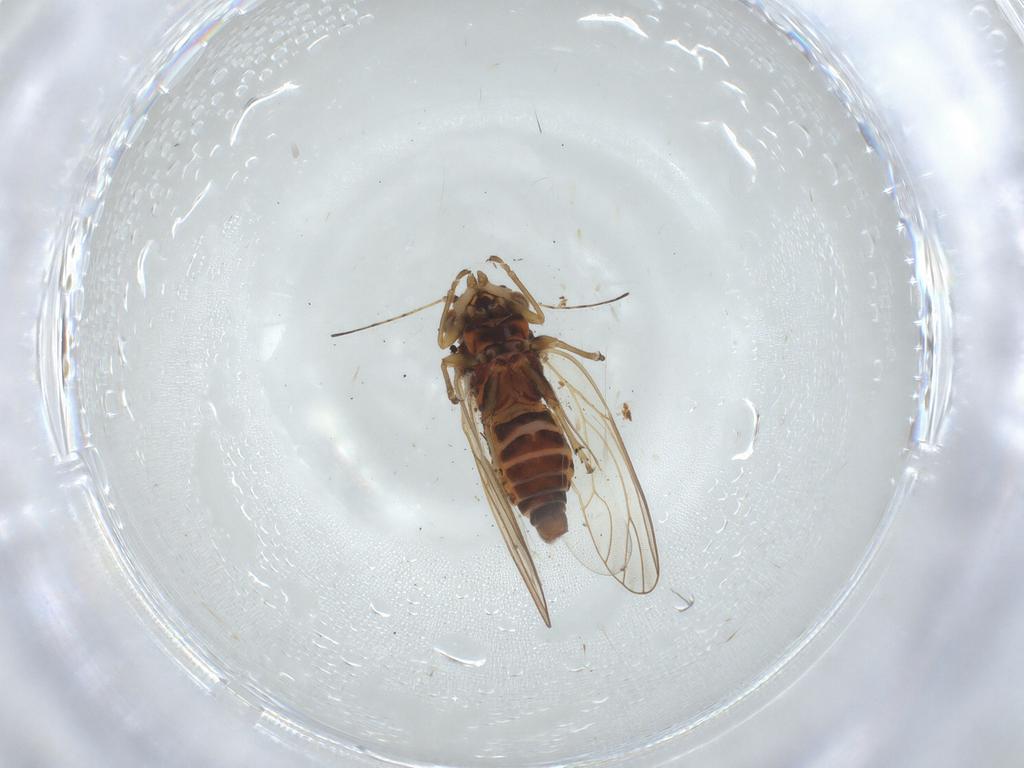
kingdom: Animalia
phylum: Arthropoda
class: Insecta
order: Hemiptera
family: Psyllidae
